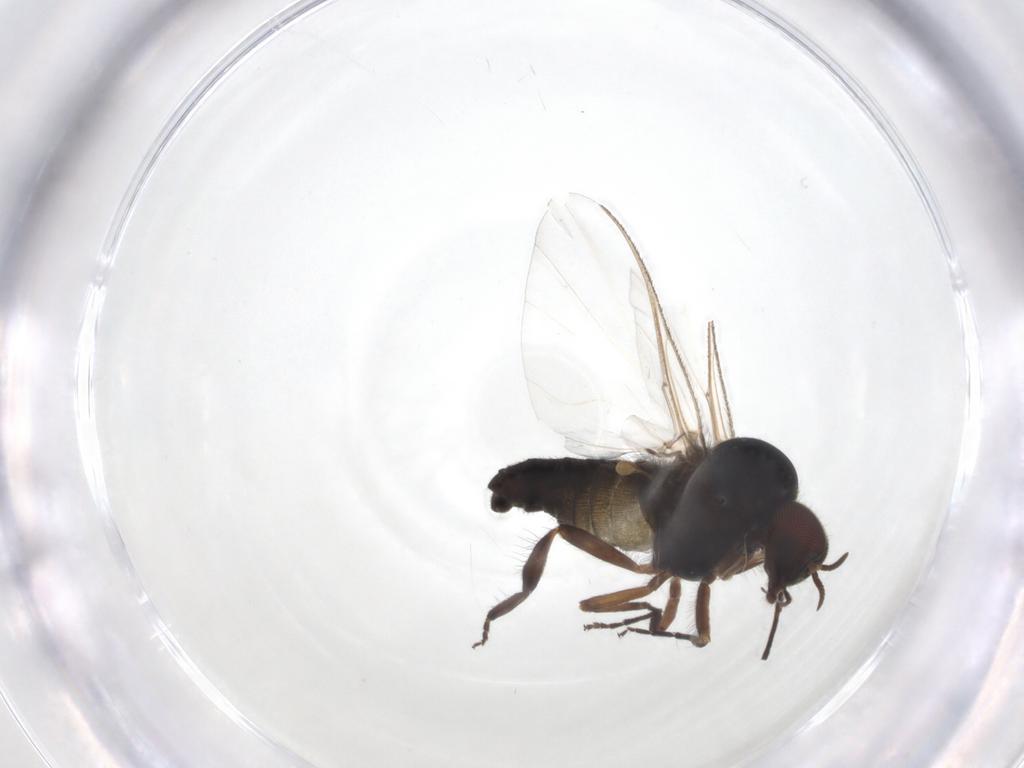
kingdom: Animalia
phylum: Arthropoda
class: Insecta
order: Diptera
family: Simuliidae
